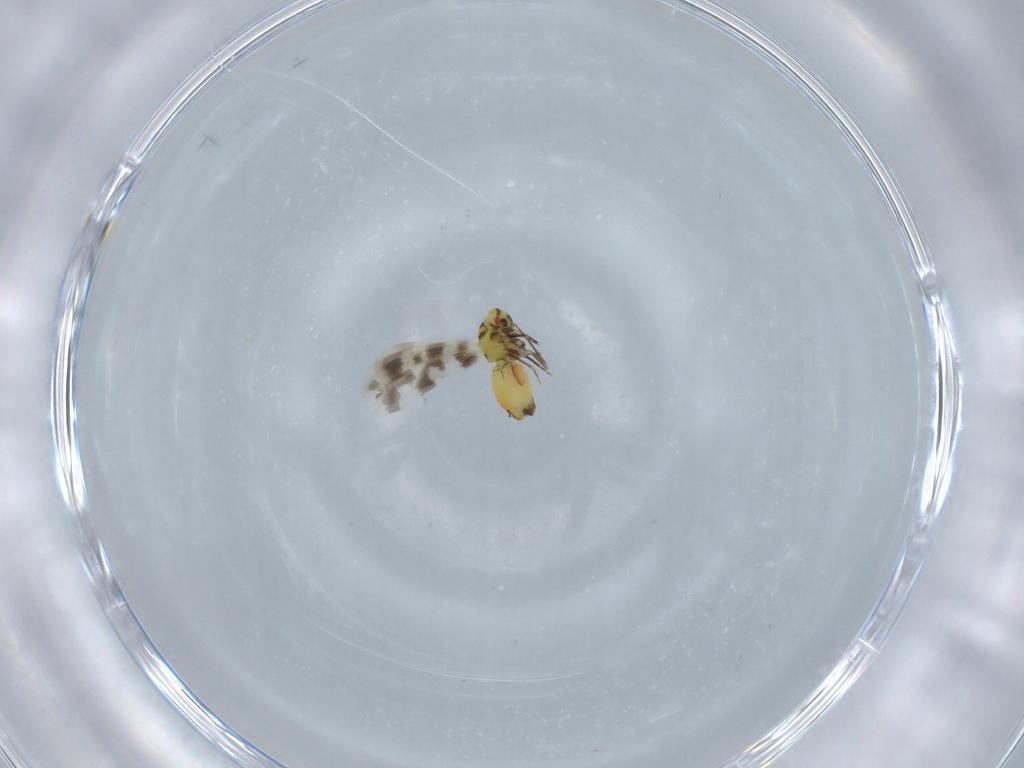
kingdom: Animalia
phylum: Arthropoda
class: Insecta
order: Hemiptera
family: Aleyrodidae
